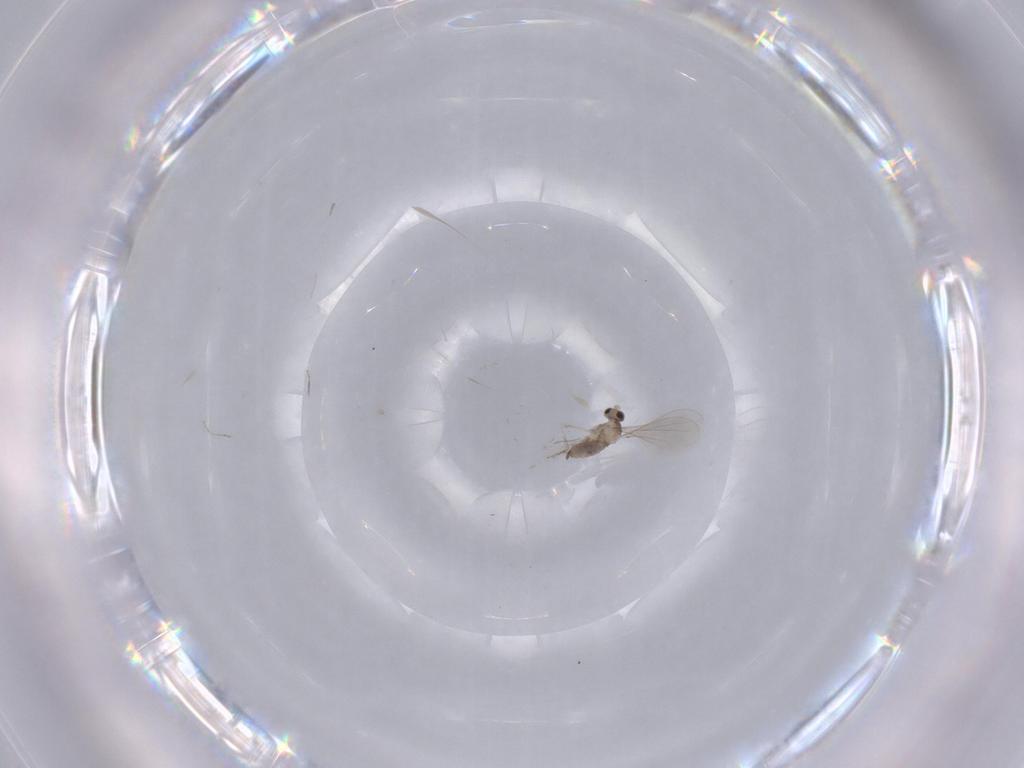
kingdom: Animalia
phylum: Arthropoda
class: Insecta
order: Diptera
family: Cecidomyiidae
